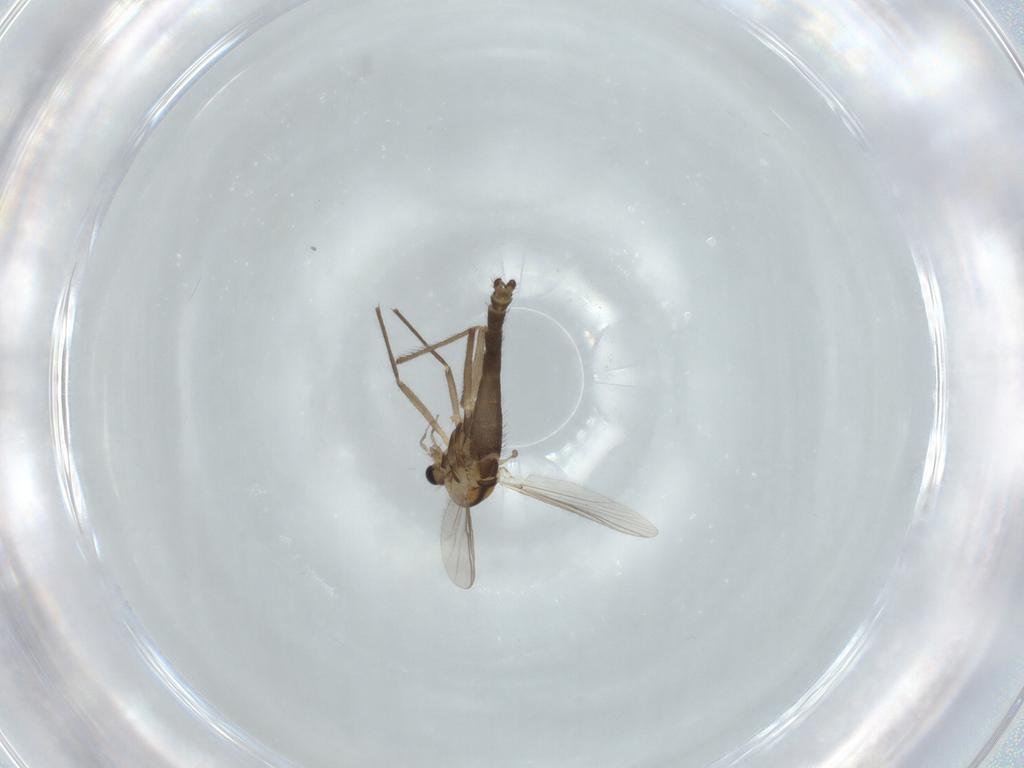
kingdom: Animalia
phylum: Arthropoda
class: Insecta
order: Diptera
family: Chironomidae
